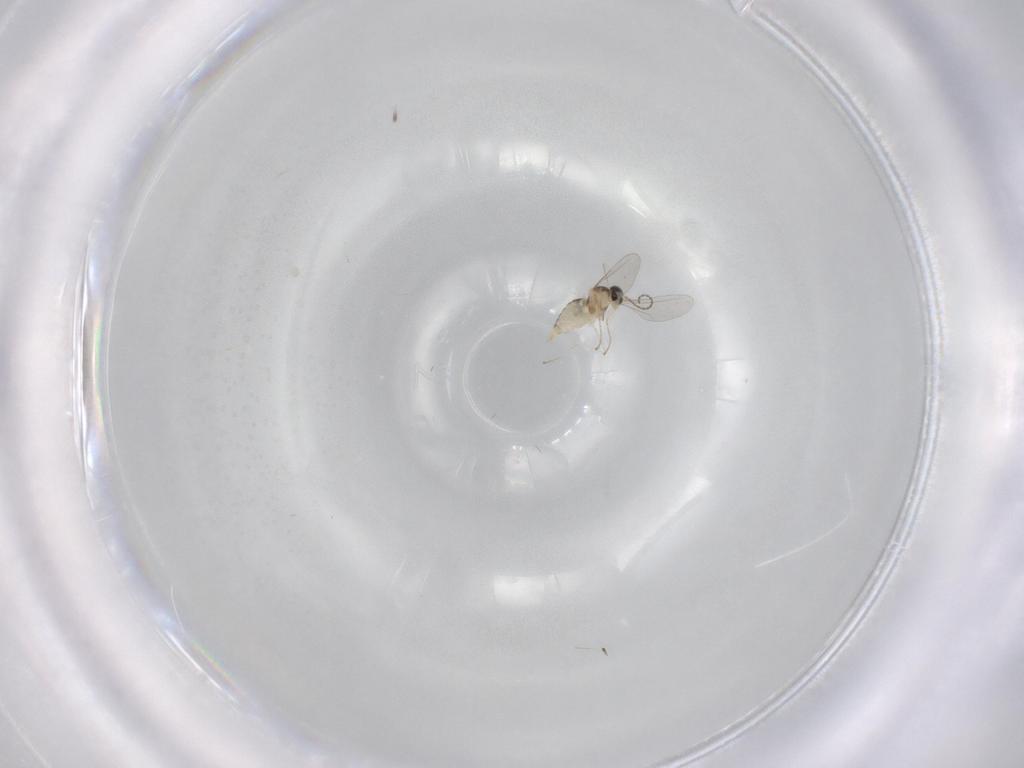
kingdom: Animalia
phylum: Arthropoda
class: Insecta
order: Diptera
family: Cecidomyiidae
